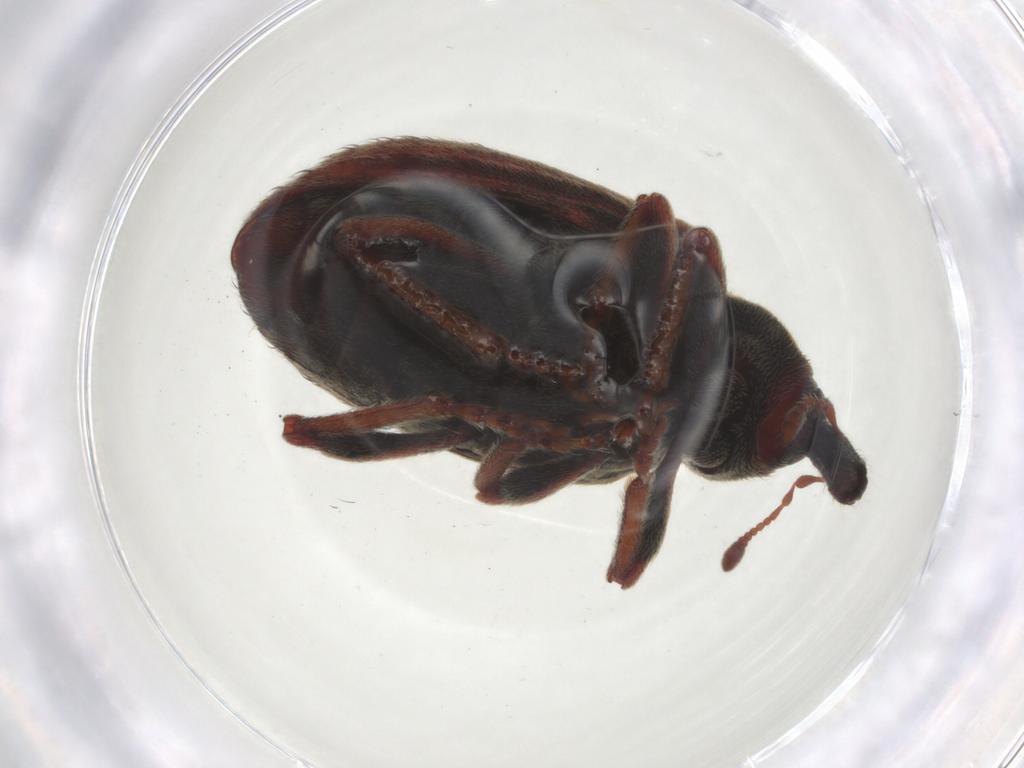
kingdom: Animalia
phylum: Arthropoda
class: Insecta
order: Coleoptera
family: Curculionidae
